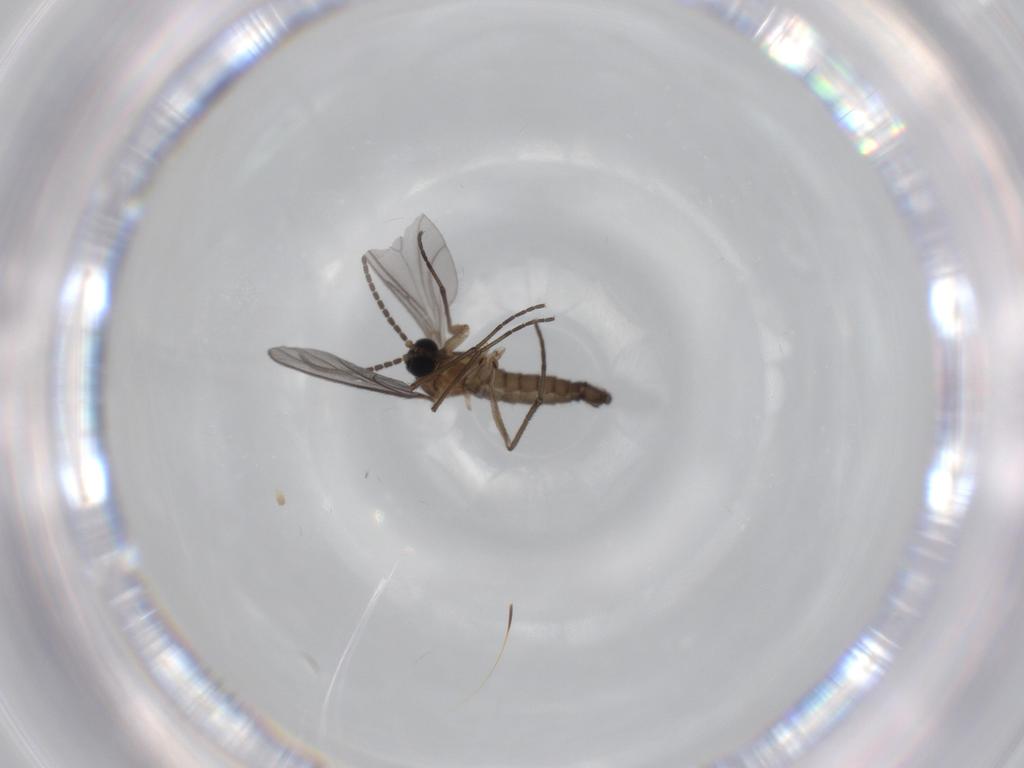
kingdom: Animalia
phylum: Arthropoda
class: Insecta
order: Diptera
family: Sciaridae
